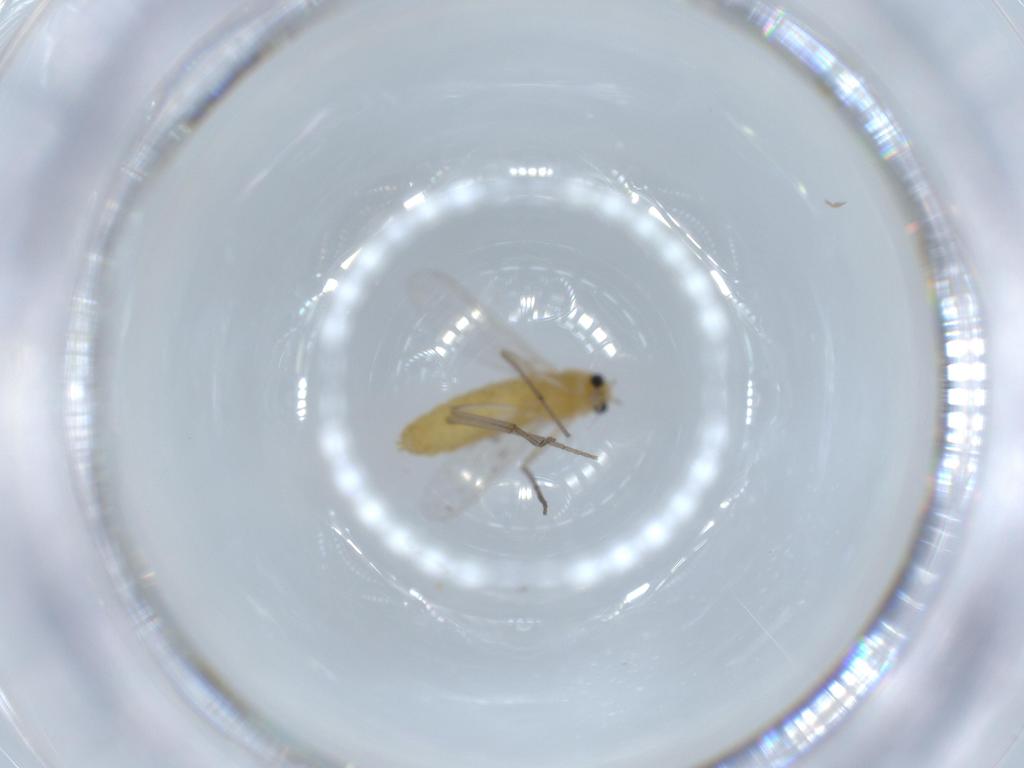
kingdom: Animalia
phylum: Arthropoda
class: Insecta
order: Diptera
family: Chironomidae
